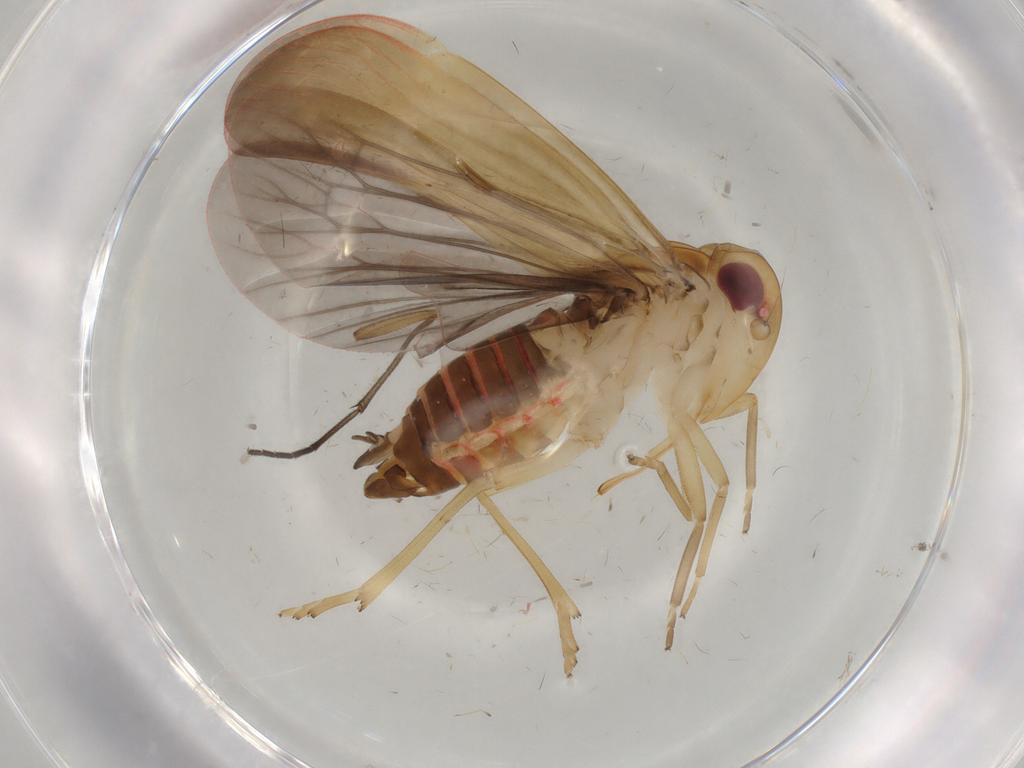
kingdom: Animalia
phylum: Arthropoda
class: Insecta
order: Hemiptera
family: Achilidae
